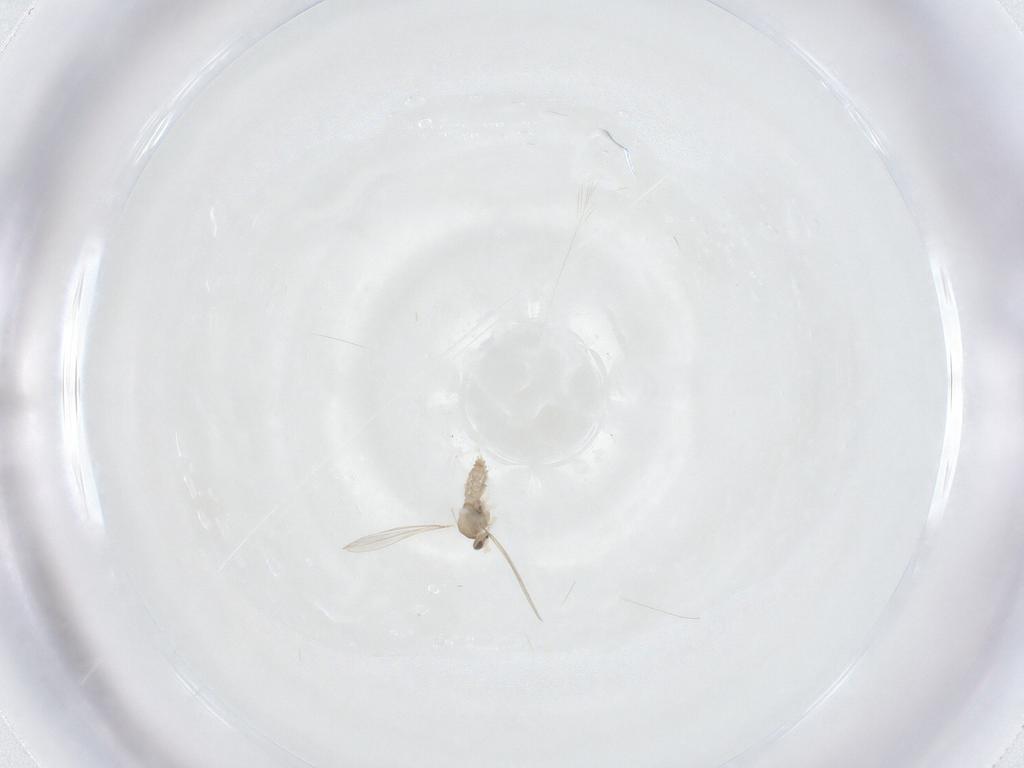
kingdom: Animalia
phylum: Arthropoda
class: Insecta
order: Diptera
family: Cecidomyiidae
